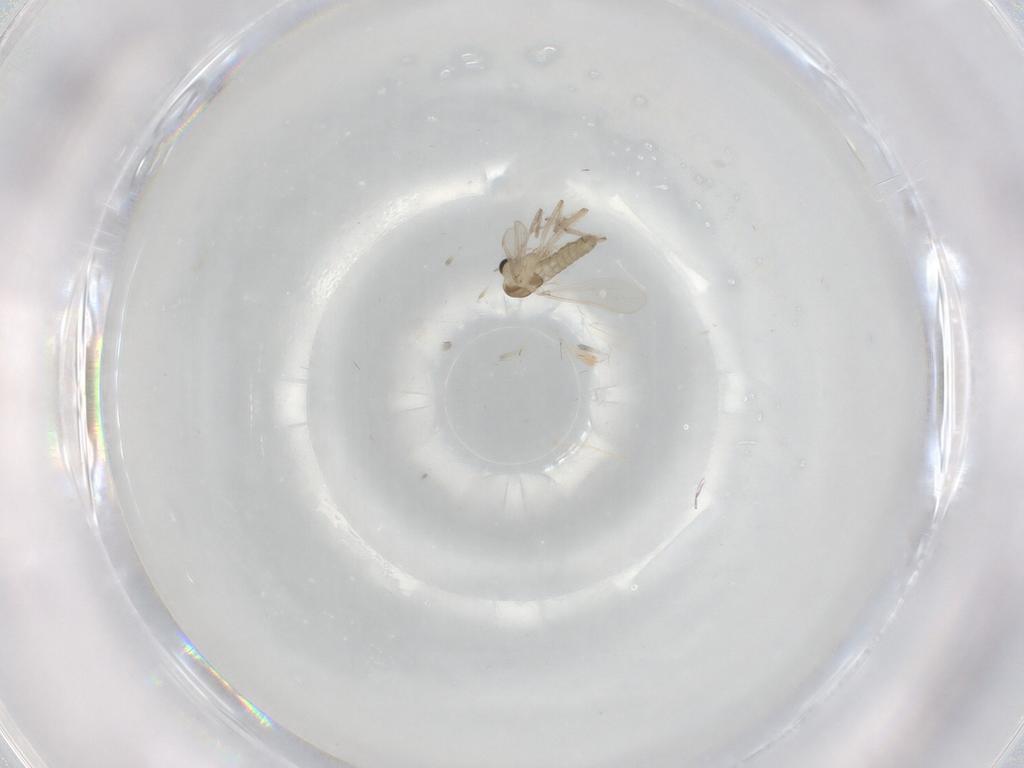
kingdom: Animalia
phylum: Arthropoda
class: Insecta
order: Diptera
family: Chironomidae
